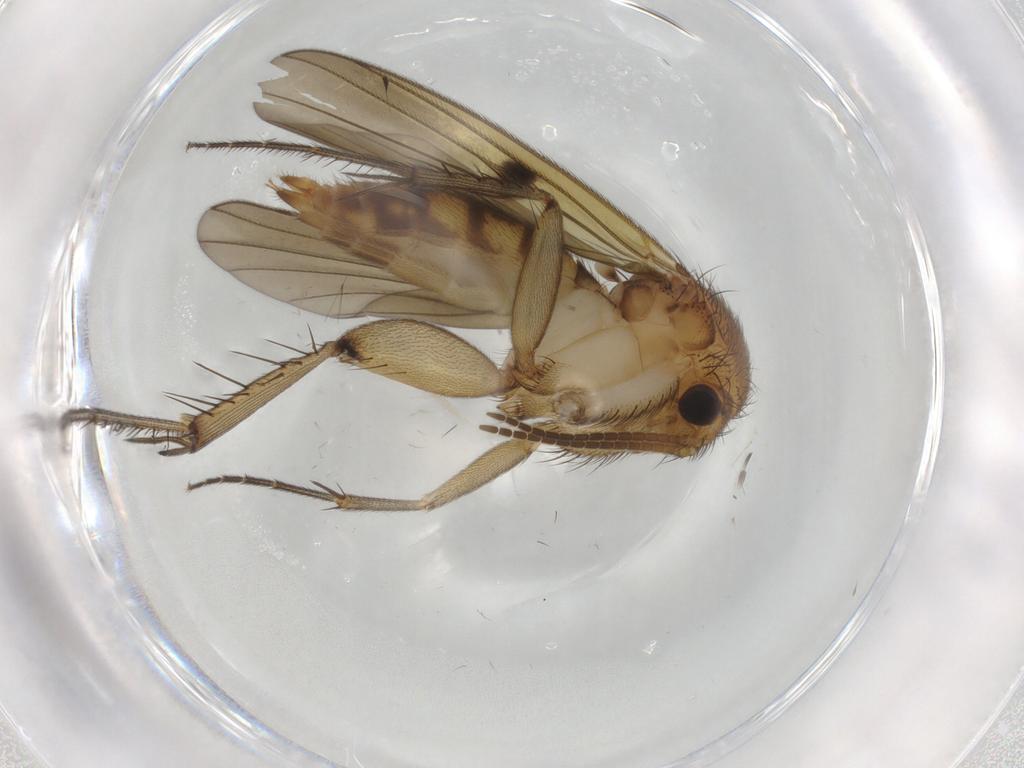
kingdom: Animalia
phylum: Arthropoda
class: Insecta
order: Diptera
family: Mycetophilidae
